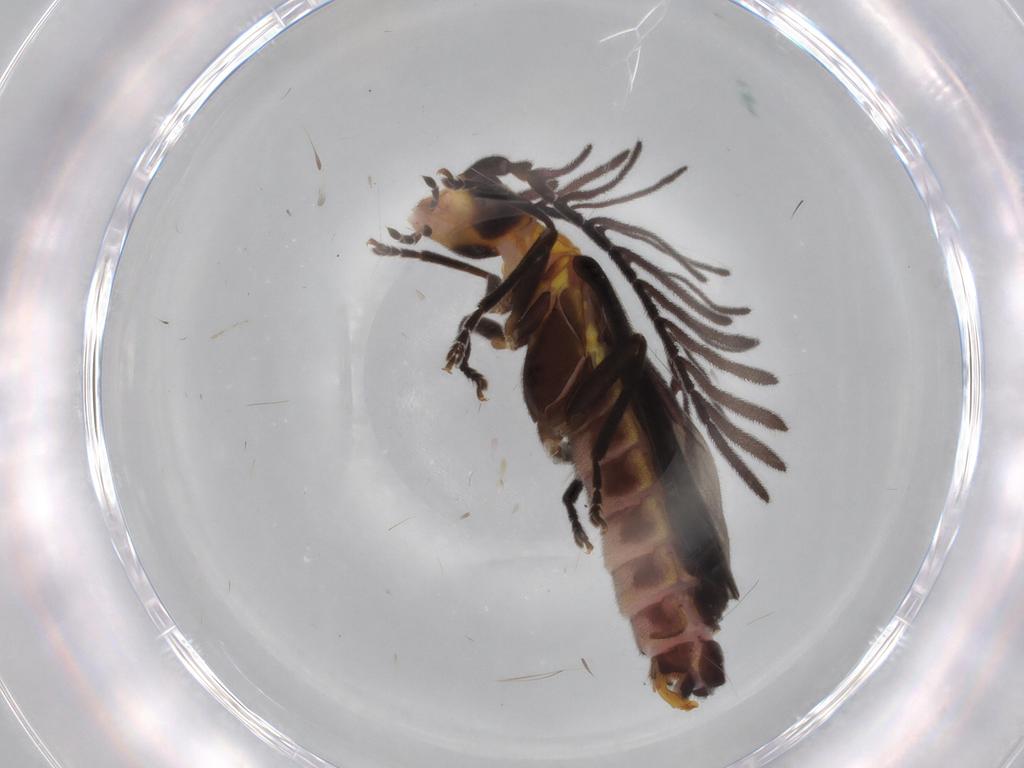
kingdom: Animalia
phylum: Arthropoda
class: Insecta
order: Coleoptera
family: Cantharidae
